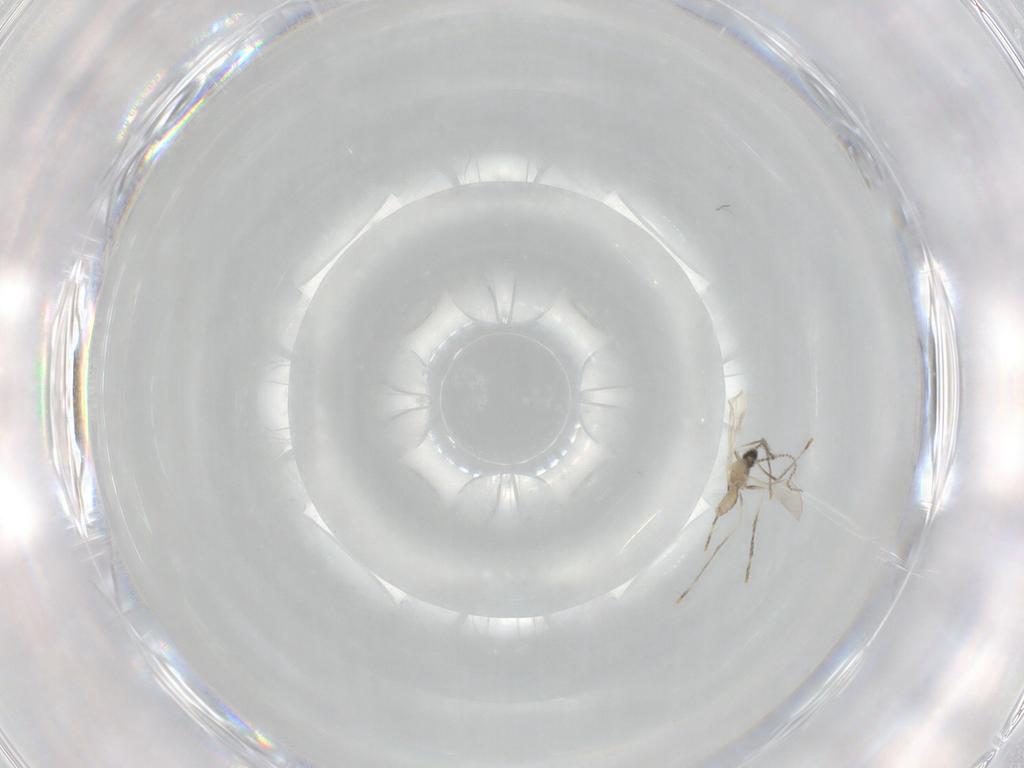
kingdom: Animalia
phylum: Arthropoda
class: Insecta
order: Diptera
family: Cecidomyiidae
